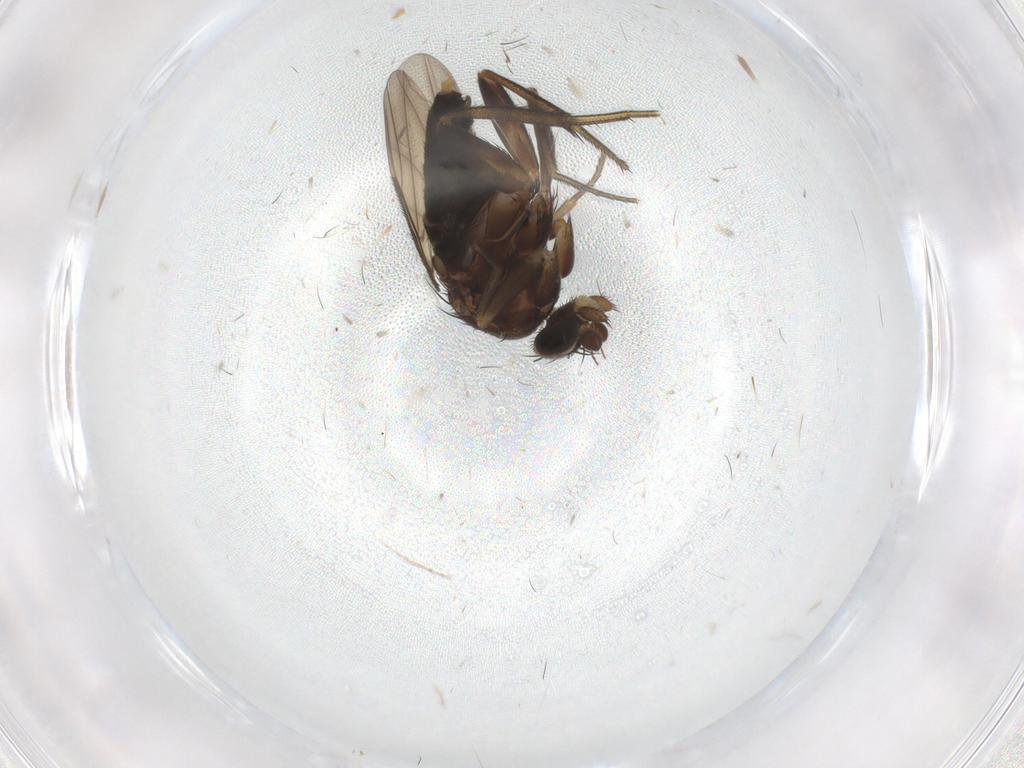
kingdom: Animalia
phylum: Arthropoda
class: Insecta
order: Diptera
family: Phoridae
